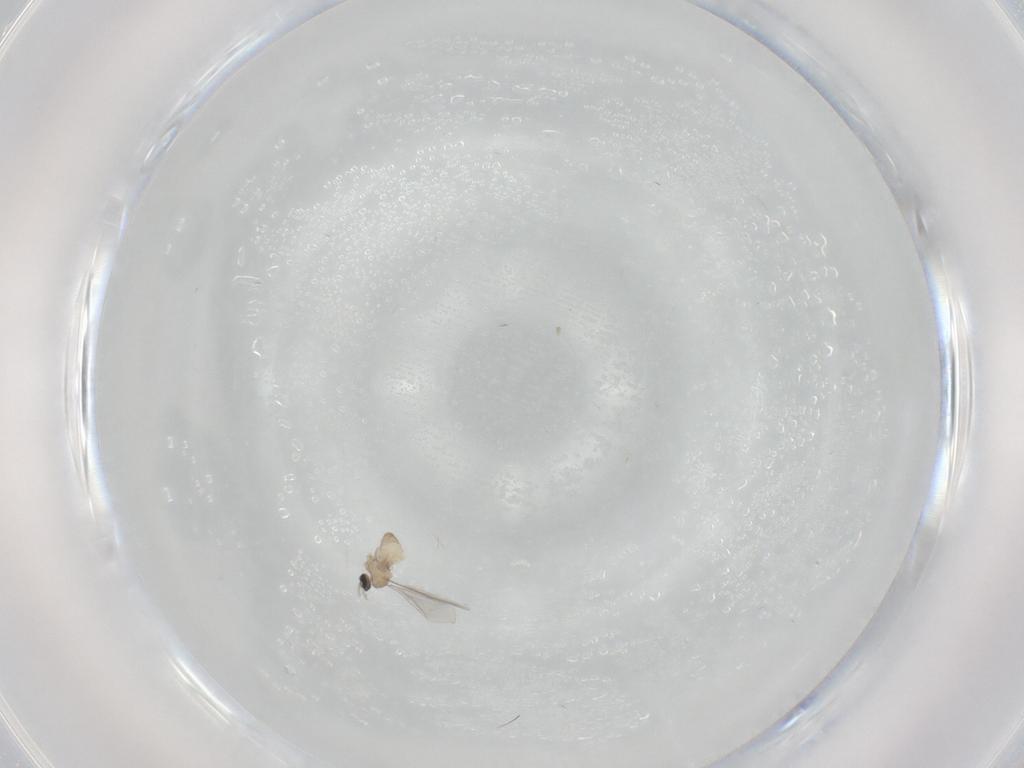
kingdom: Animalia
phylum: Arthropoda
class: Insecta
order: Diptera
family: Cecidomyiidae
